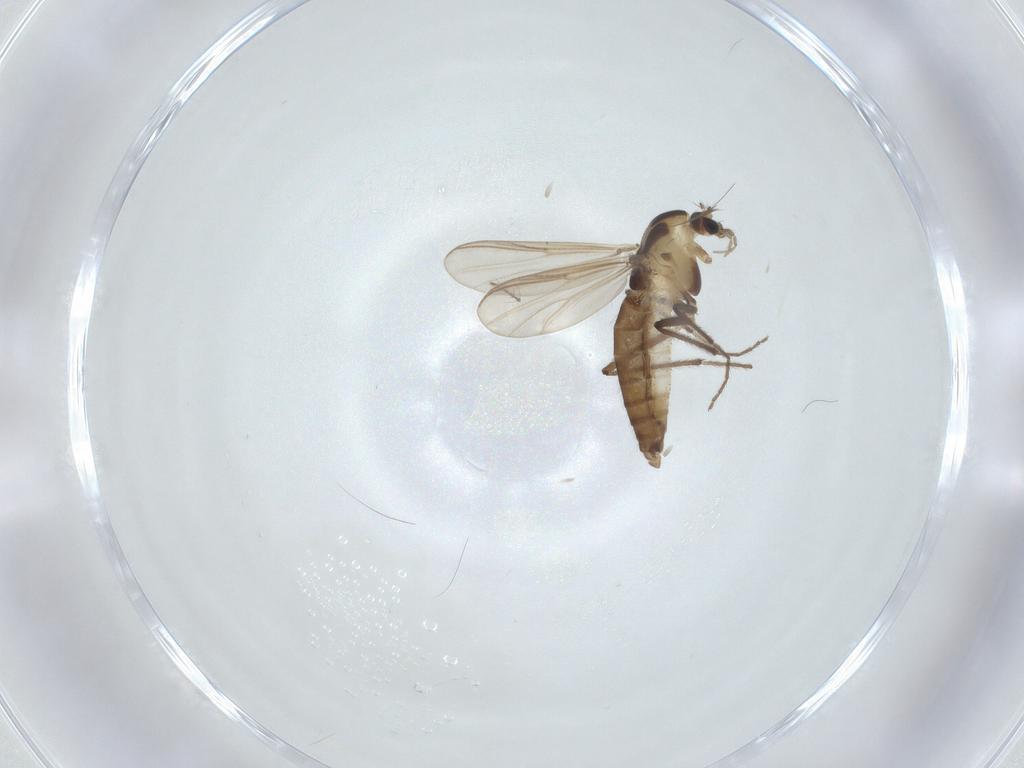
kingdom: Animalia
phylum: Arthropoda
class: Insecta
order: Diptera
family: Chironomidae
